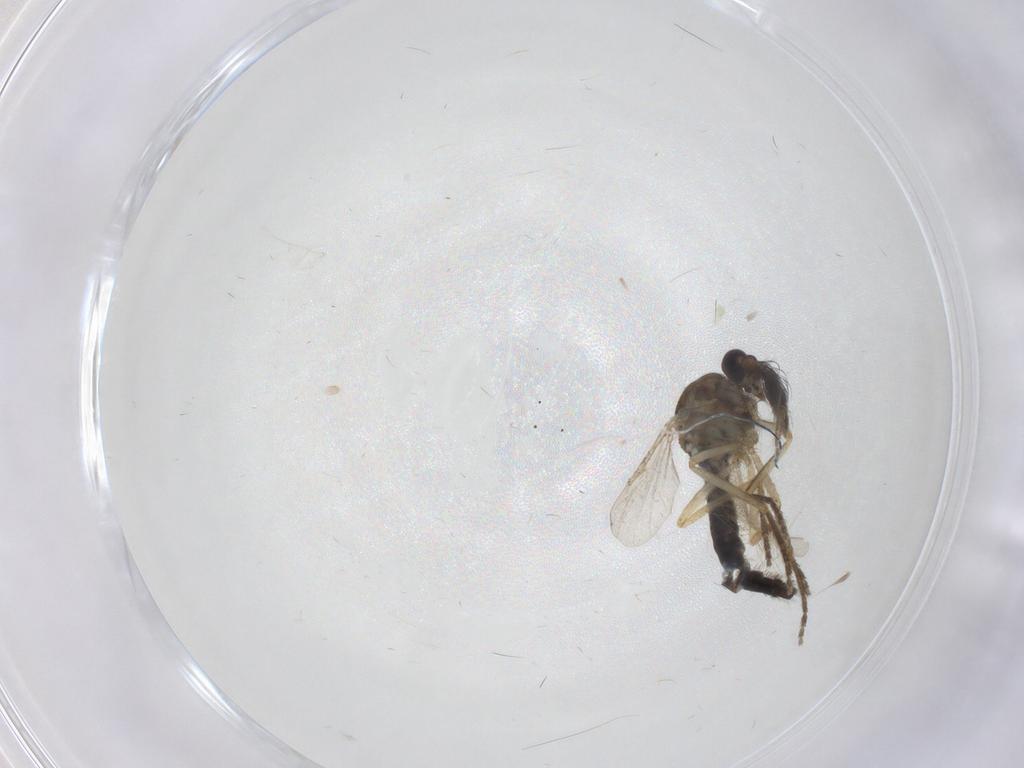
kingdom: Animalia
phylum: Arthropoda
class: Insecta
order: Diptera
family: Ceratopogonidae
